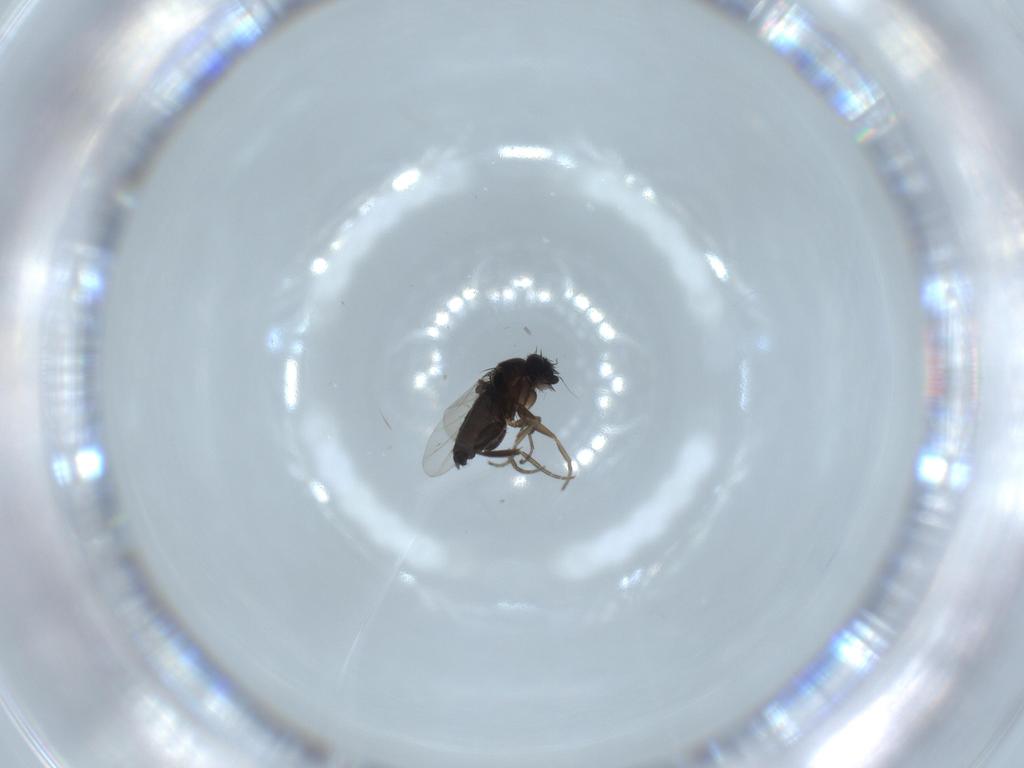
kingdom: Animalia
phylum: Arthropoda
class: Insecta
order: Diptera
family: Phoridae
